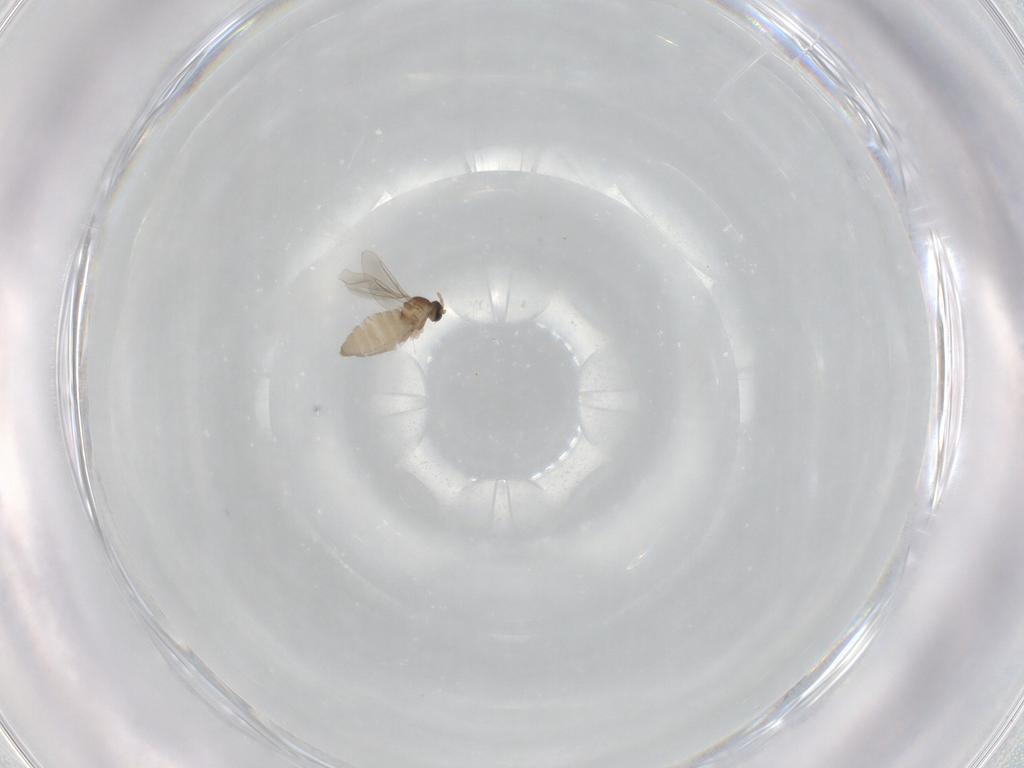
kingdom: Animalia
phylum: Arthropoda
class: Insecta
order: Diptera
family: Cecidomyiidae
